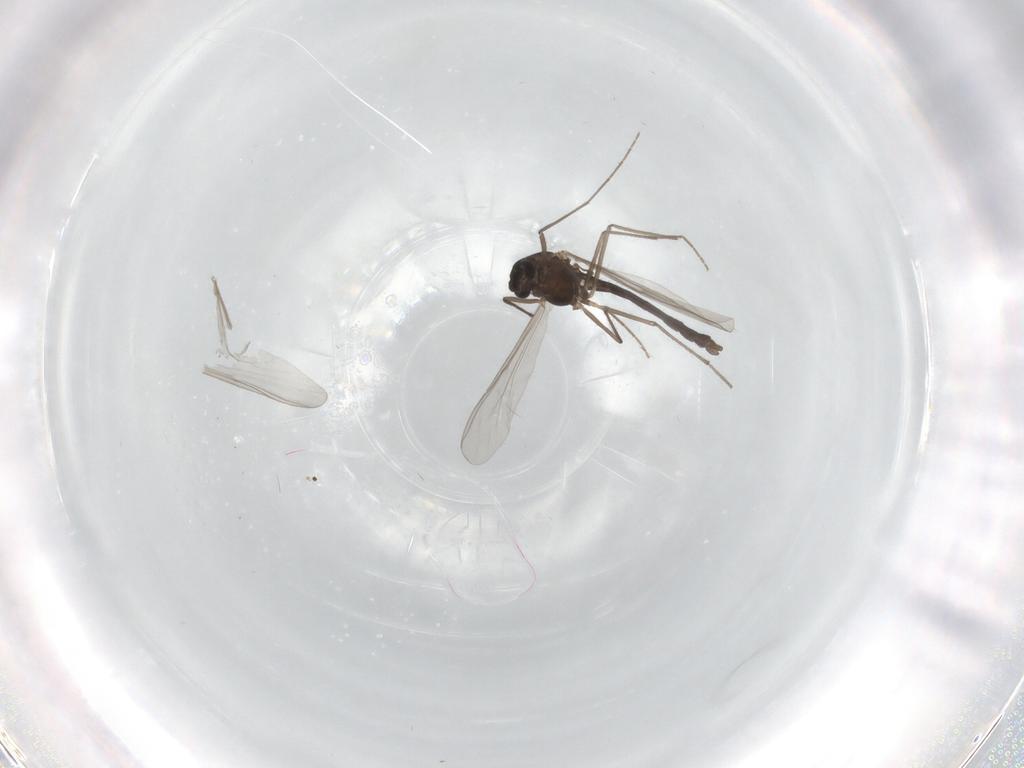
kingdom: Animalia
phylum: Arthropoda
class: Insecta
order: Diptera
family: Chironomidae
